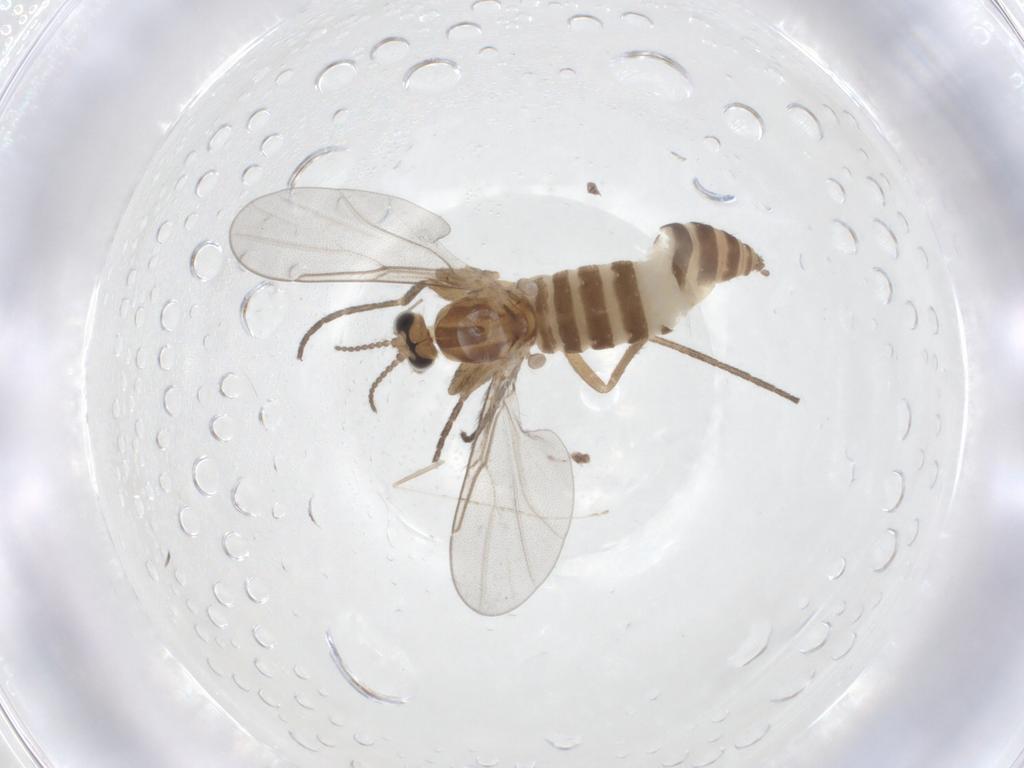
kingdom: Animalia
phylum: Arthropoda
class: Insecta
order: Diptera
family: Cecidomyiidae
